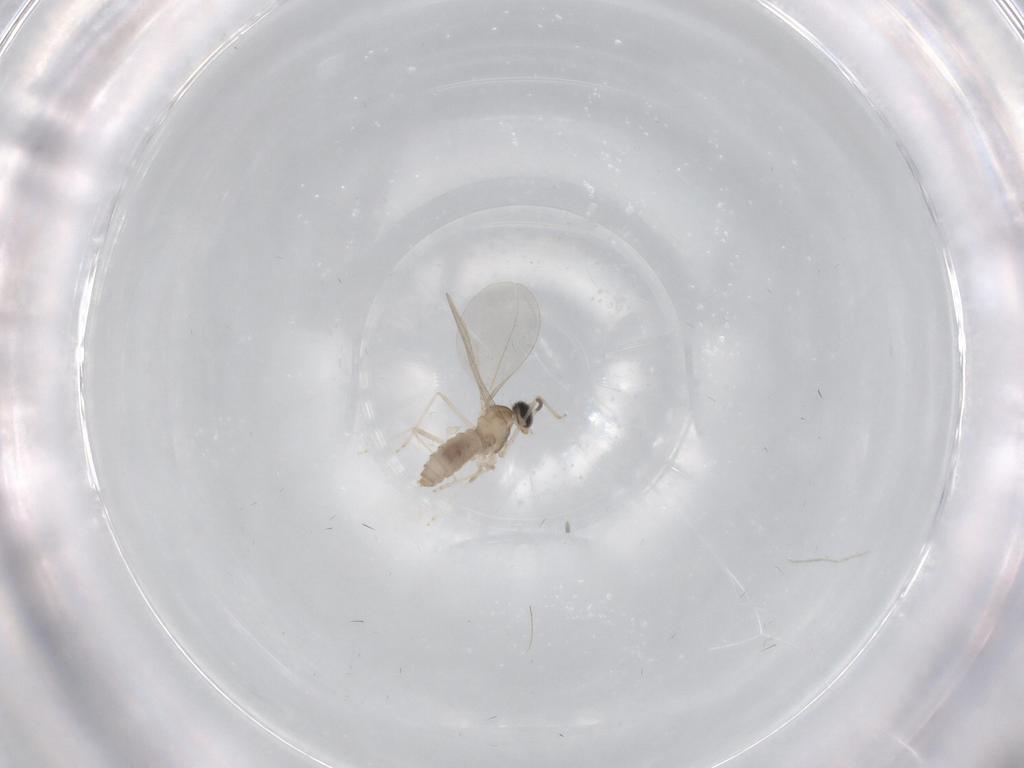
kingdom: Animalia
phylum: Arthropoda
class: Insecta
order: Diptera
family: Cecidomyiidae
